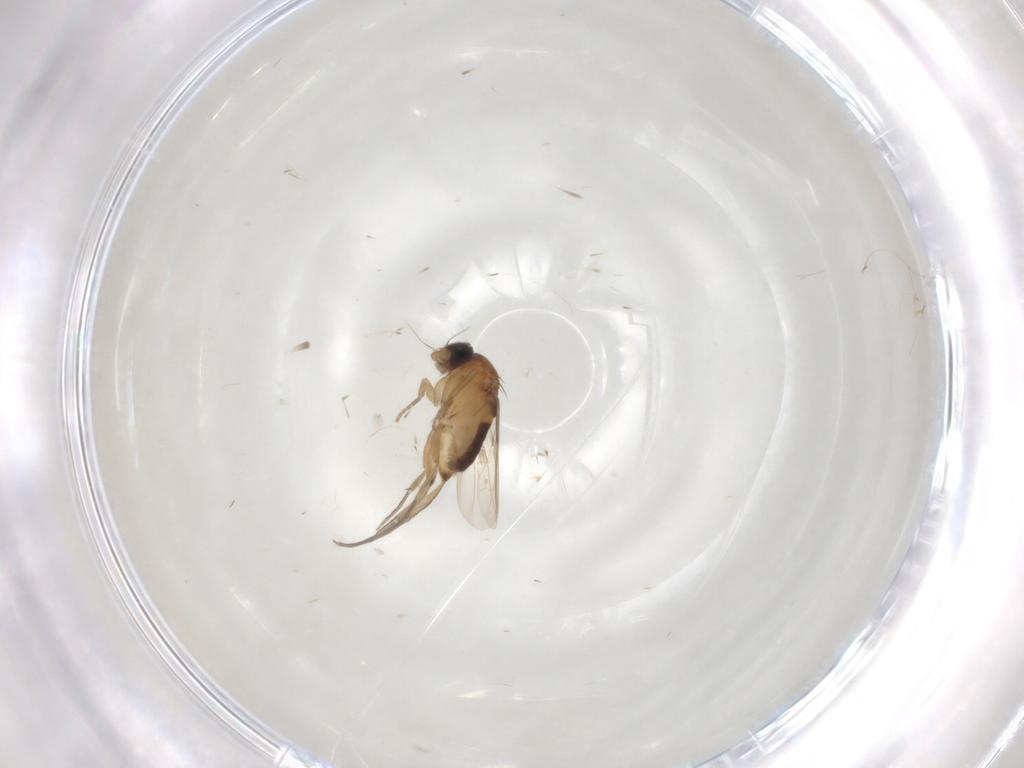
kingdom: Animalia
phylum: Arthropoda
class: Insecta
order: Diptera
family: Phoridae
